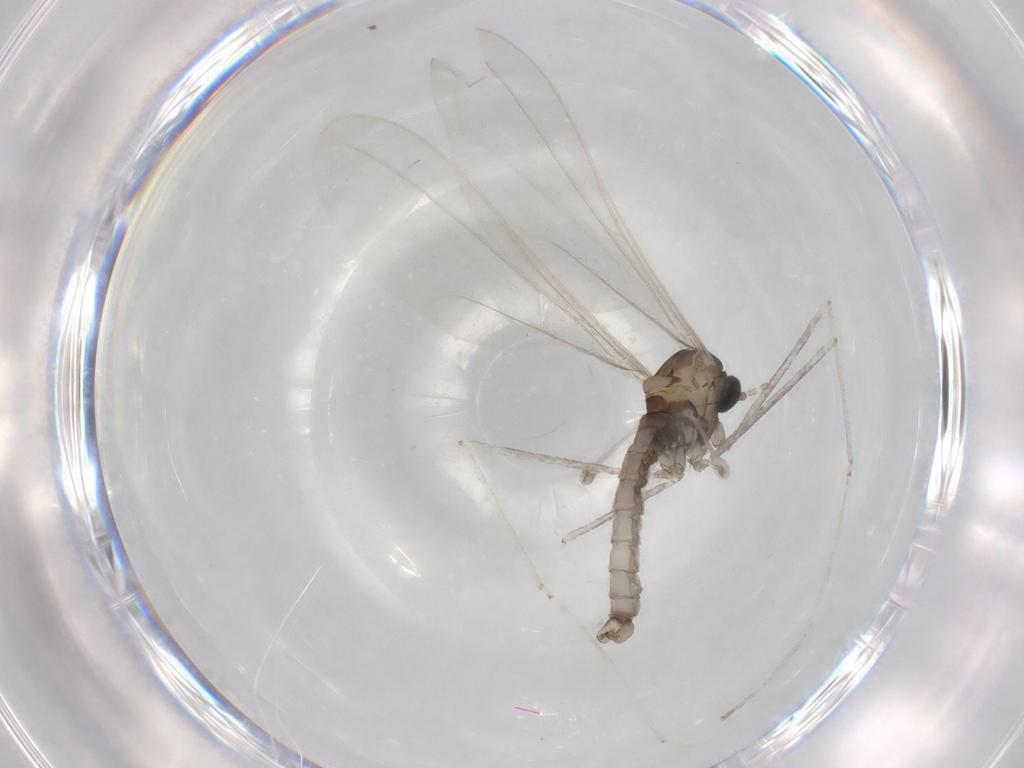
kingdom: Animalia
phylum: Arthropoda
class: Insecta
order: Diptera
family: Cecidomyiidae
